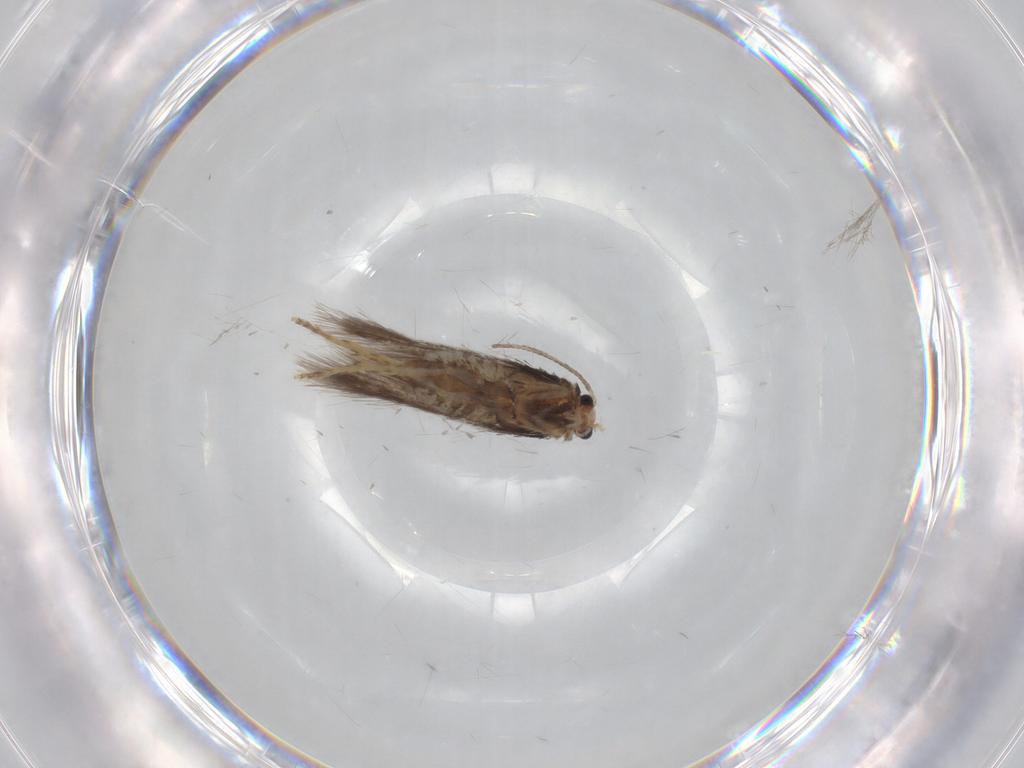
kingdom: Animalia
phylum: Arthropoda
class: Insecta
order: Lepidoptera
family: Nepticulidae
